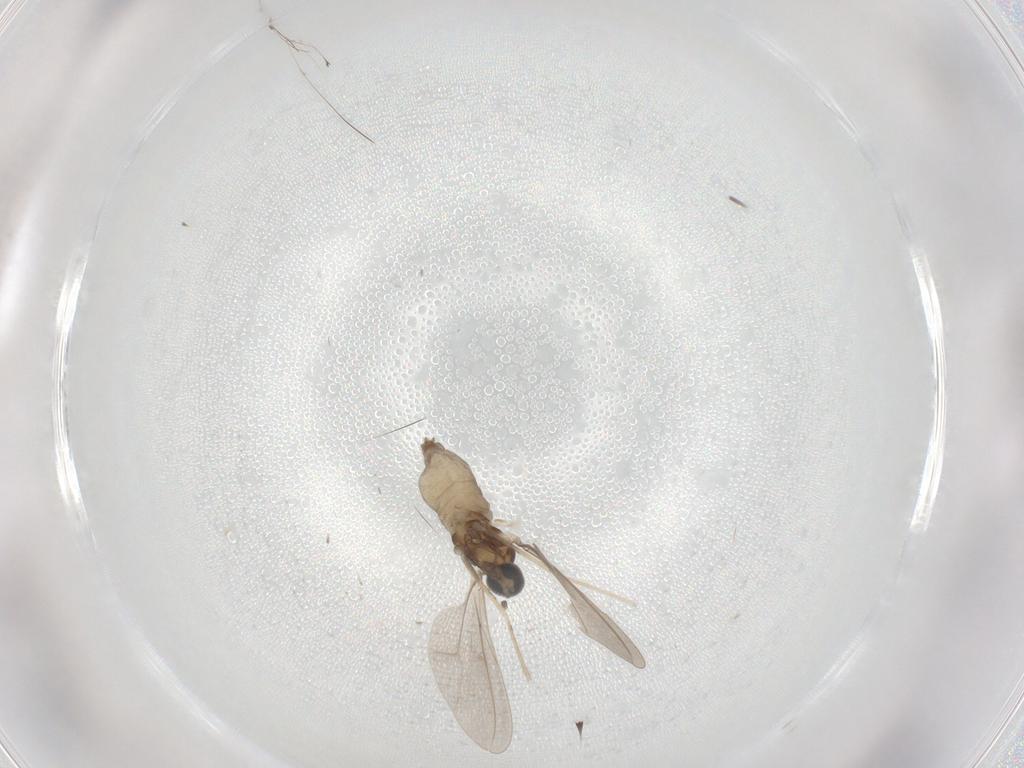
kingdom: Animalia
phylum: Arthropoda
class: Insecta
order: Diptera
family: Cecidomyiidae
